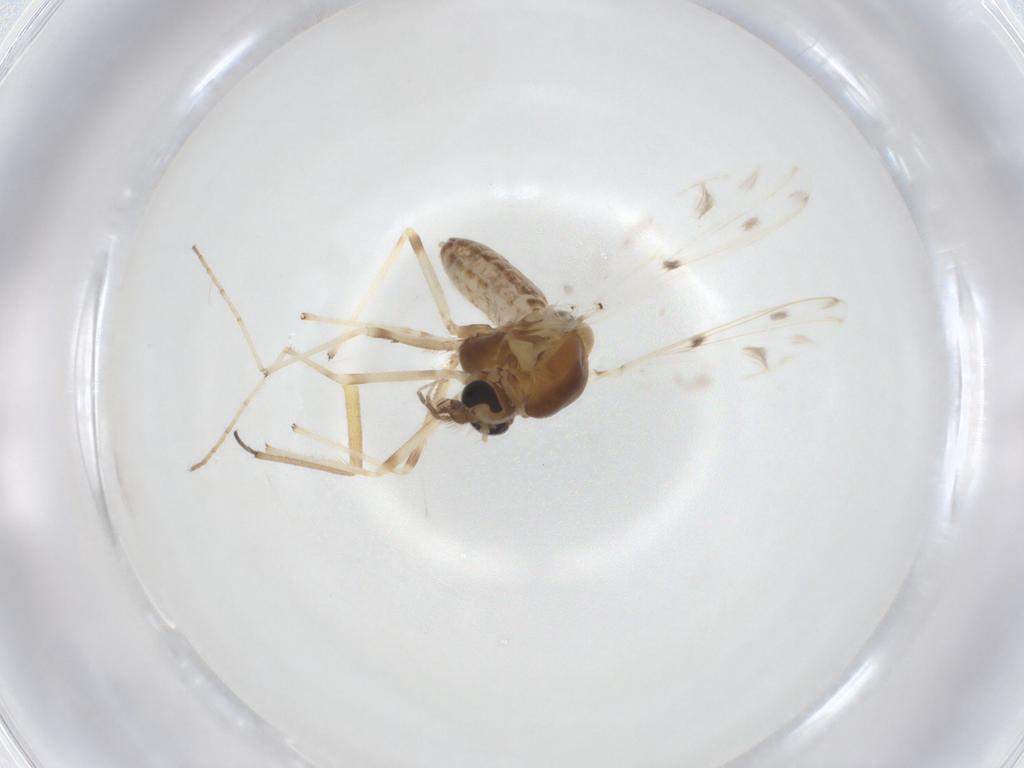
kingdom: Animalia
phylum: Arthropoda
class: Insecta
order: Diptera
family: Chironomidae
